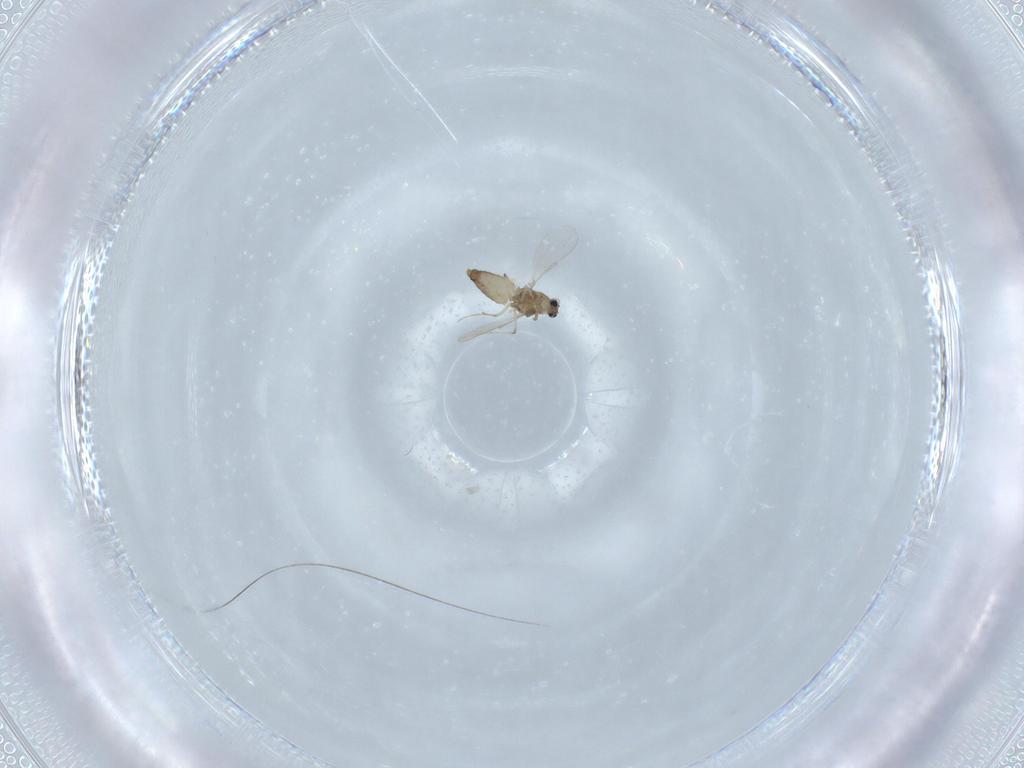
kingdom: Animalia
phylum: Arthropoda
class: Insecta
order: Diptera
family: Chironomidae
